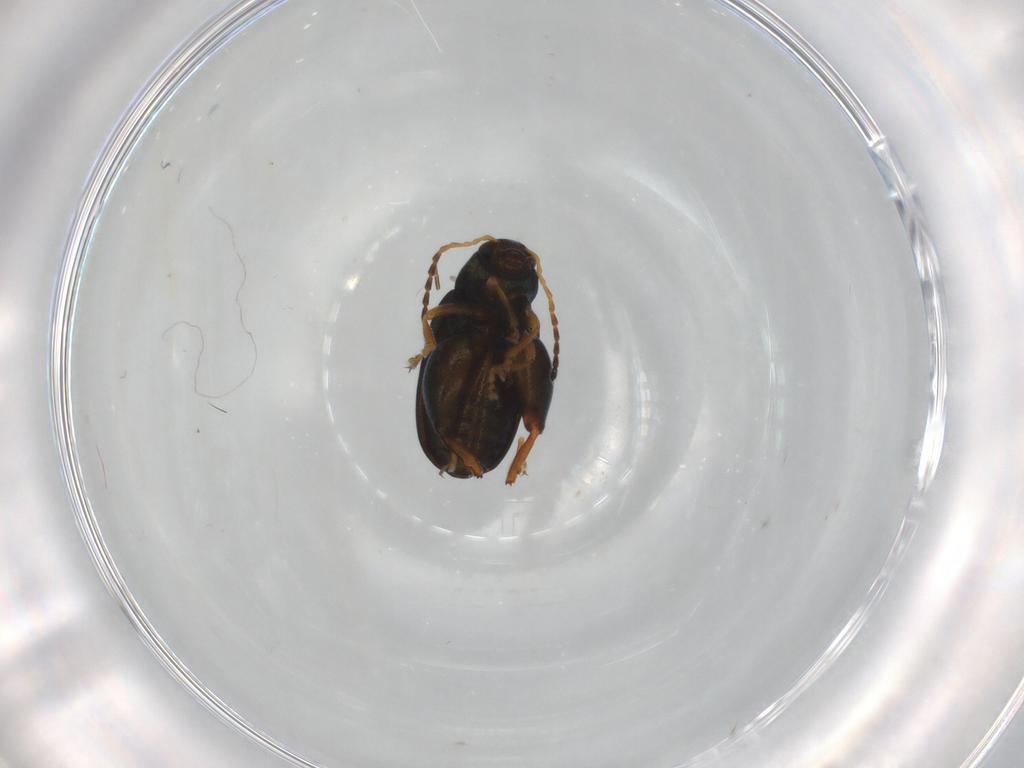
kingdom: Animalia
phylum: Arthropoda
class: Insecta
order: Coleoptera
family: Chrysomelidae
